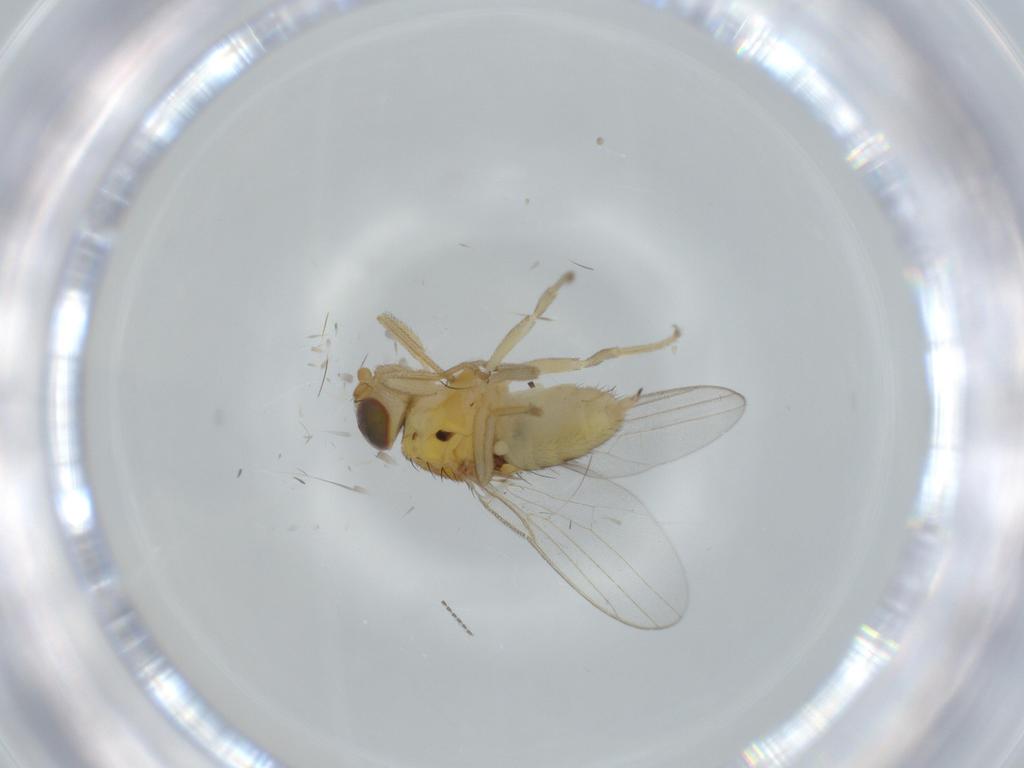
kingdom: Animalia
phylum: Arthropoda
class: Insecta
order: Diptera
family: Chloropidae
